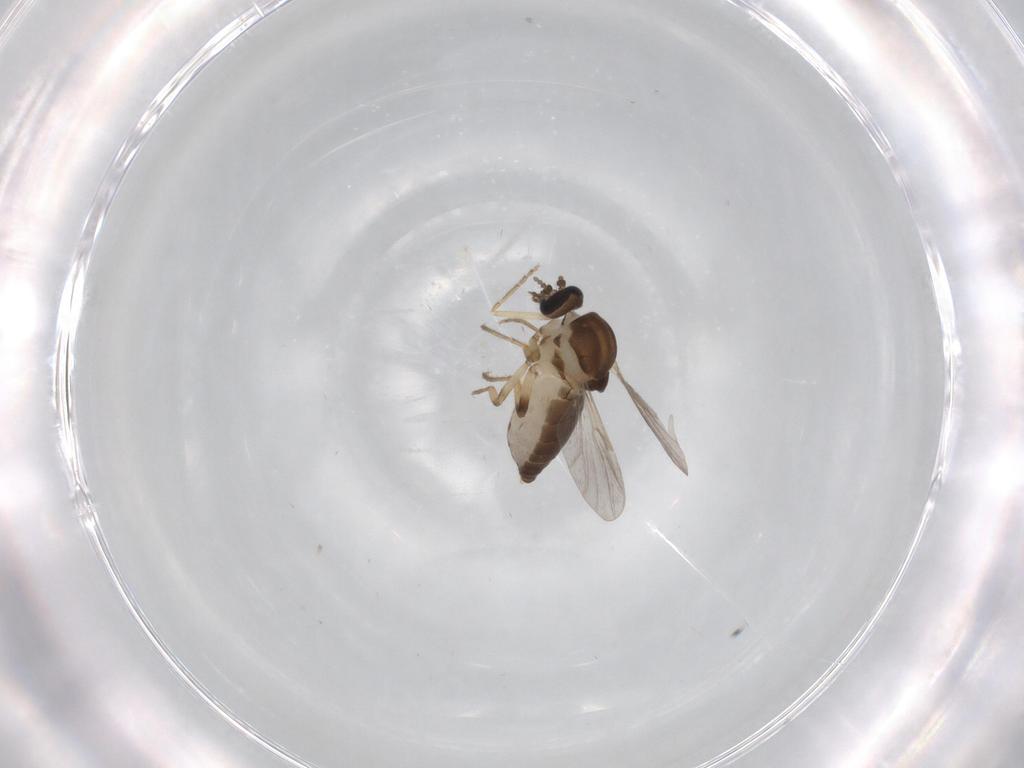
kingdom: Animalia
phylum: Arthropoda
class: Insecta
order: Diptera
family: Ceratopogonidae
